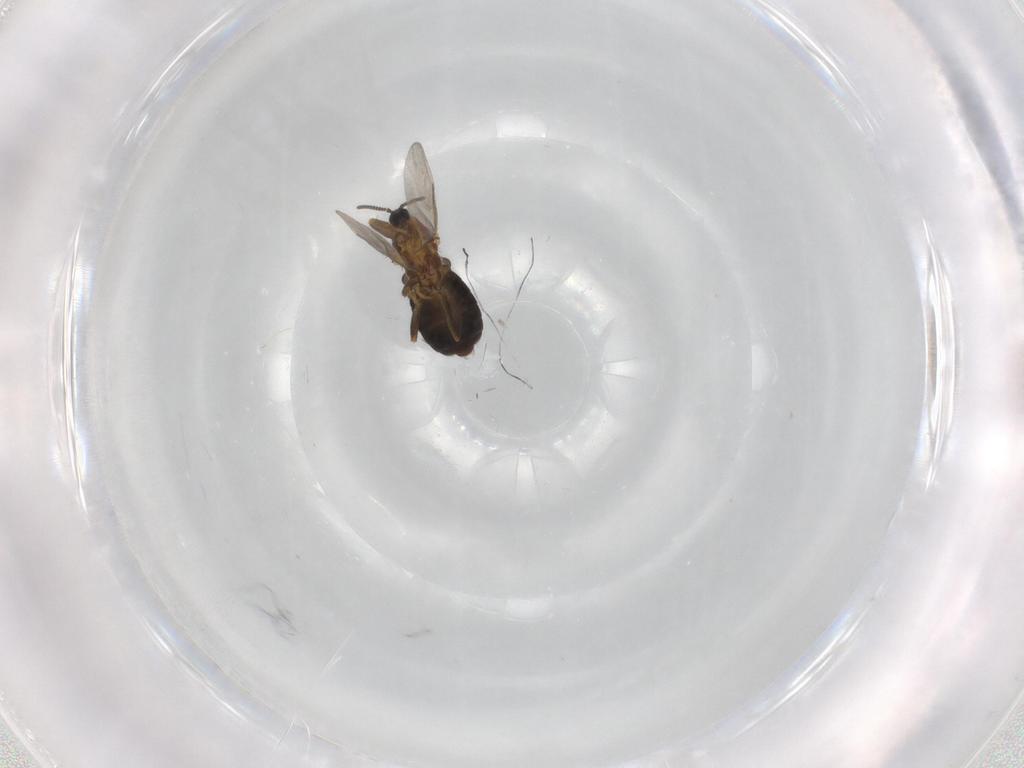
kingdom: Animalia
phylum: Arthropoda
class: Insecta
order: Diptera
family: Scatopsidae
